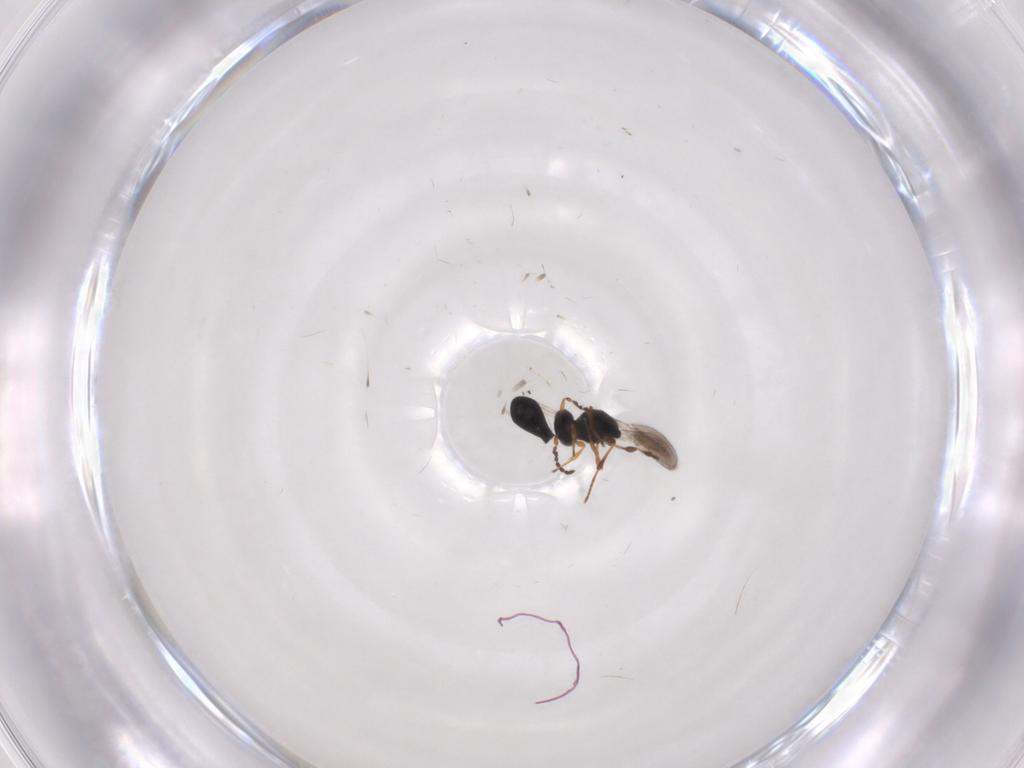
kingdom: Animalia
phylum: Arthropoda
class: Insecta
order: Hymenoptera
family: Platygastridae
